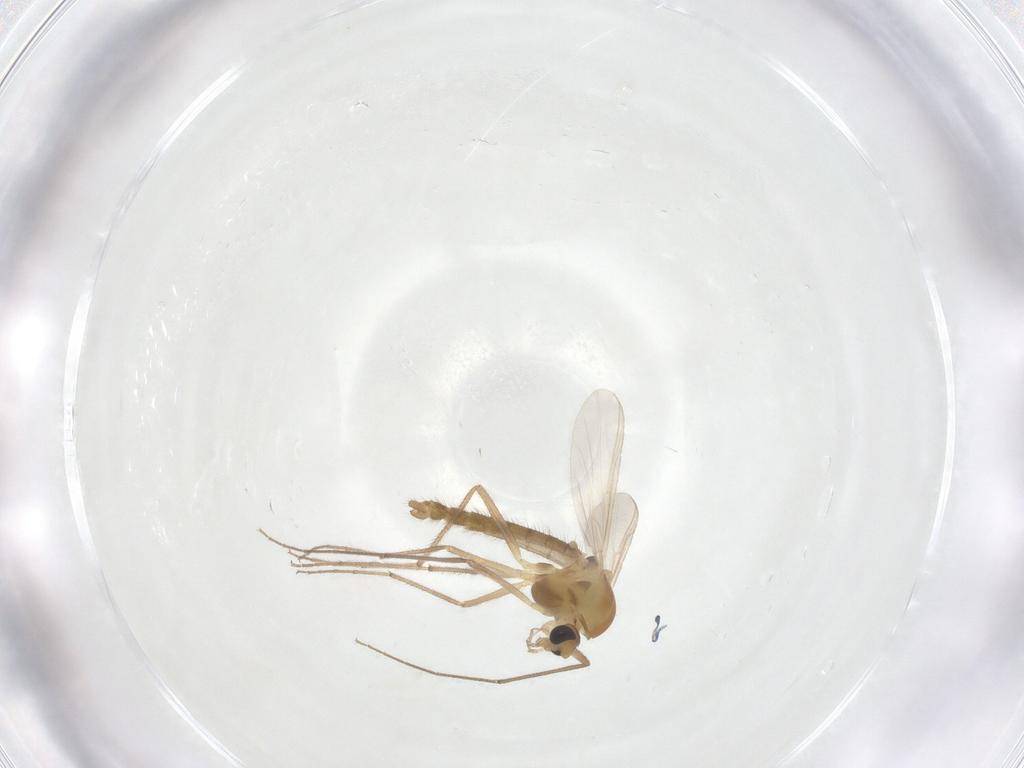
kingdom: Animalia
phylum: Arthropoda
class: Insecta
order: Diptera
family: Chironomidae
